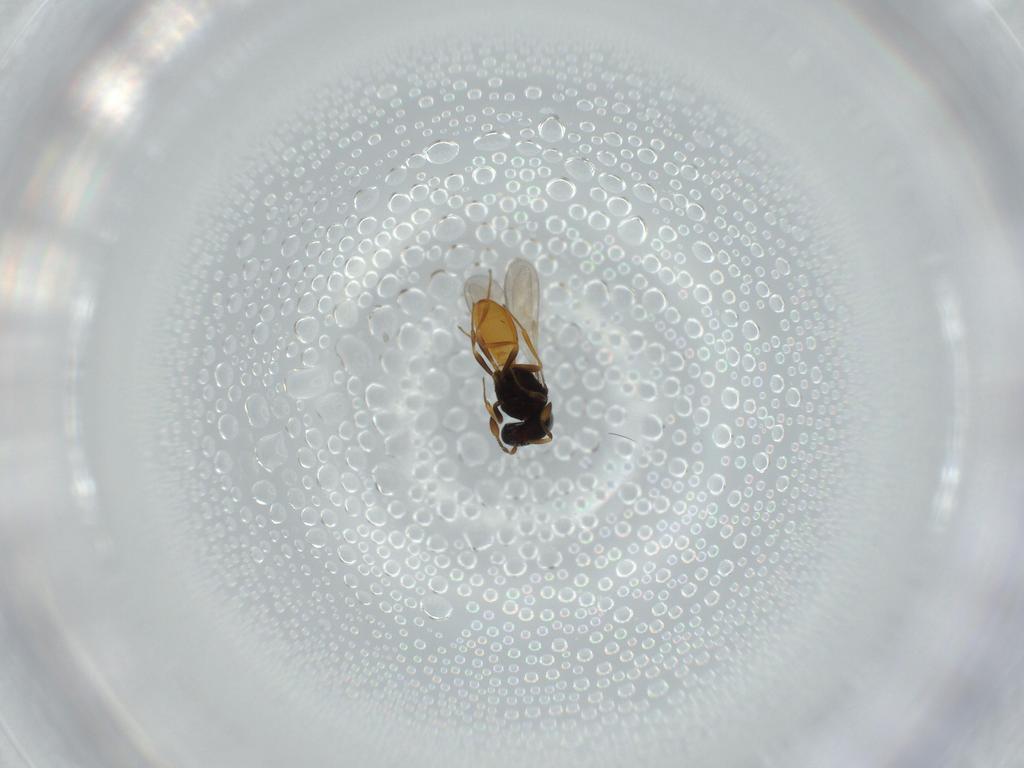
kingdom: Animalia
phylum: Arthropoda
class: Insecta
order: Hymenoptera
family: Scelionidae
